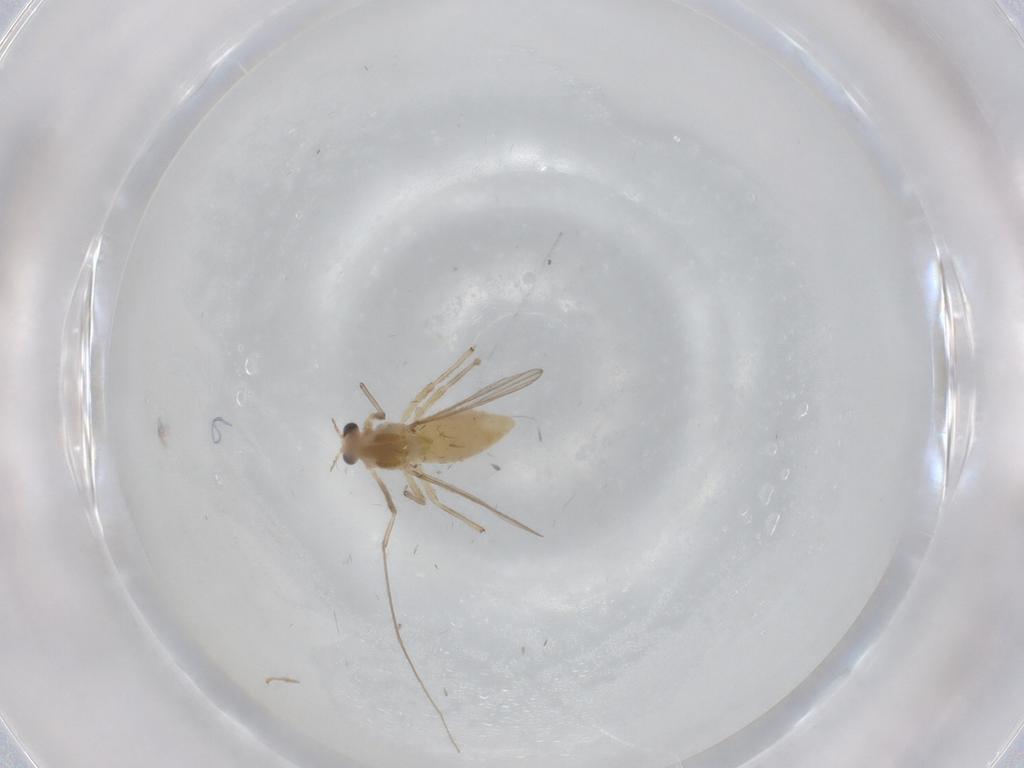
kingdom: Animalia
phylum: Arthropoda
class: Insecta
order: Diptera
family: Chironomidae
